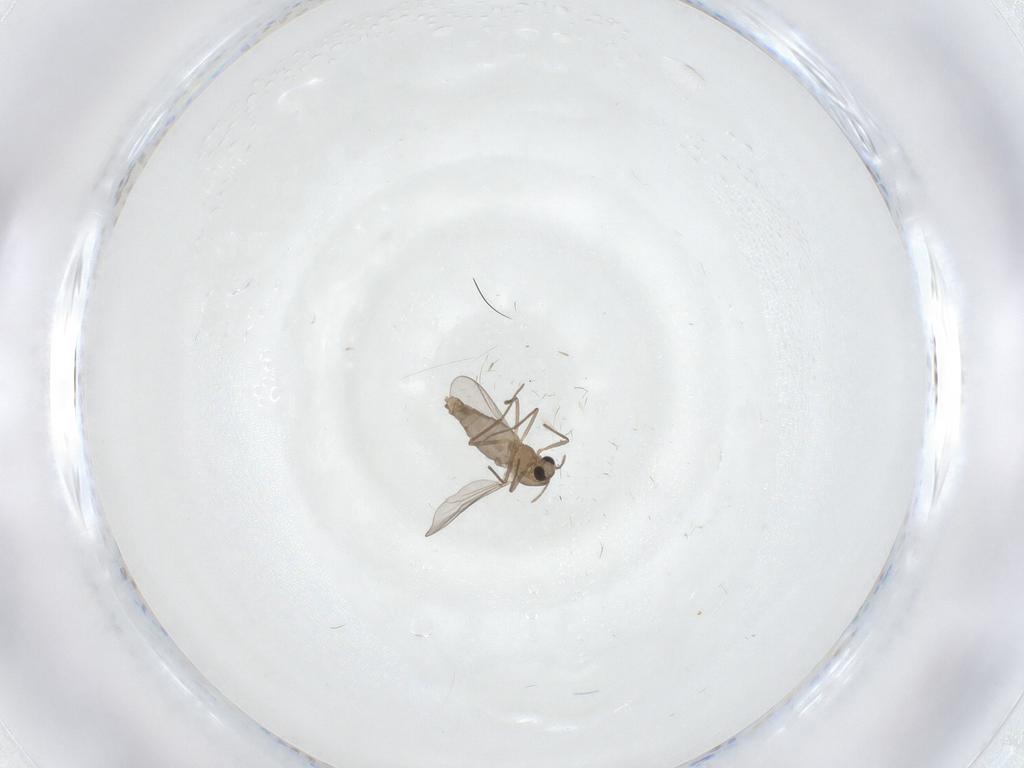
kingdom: Animalia
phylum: Arthropoda
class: Insecta
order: Diptera
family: Chironomidae
